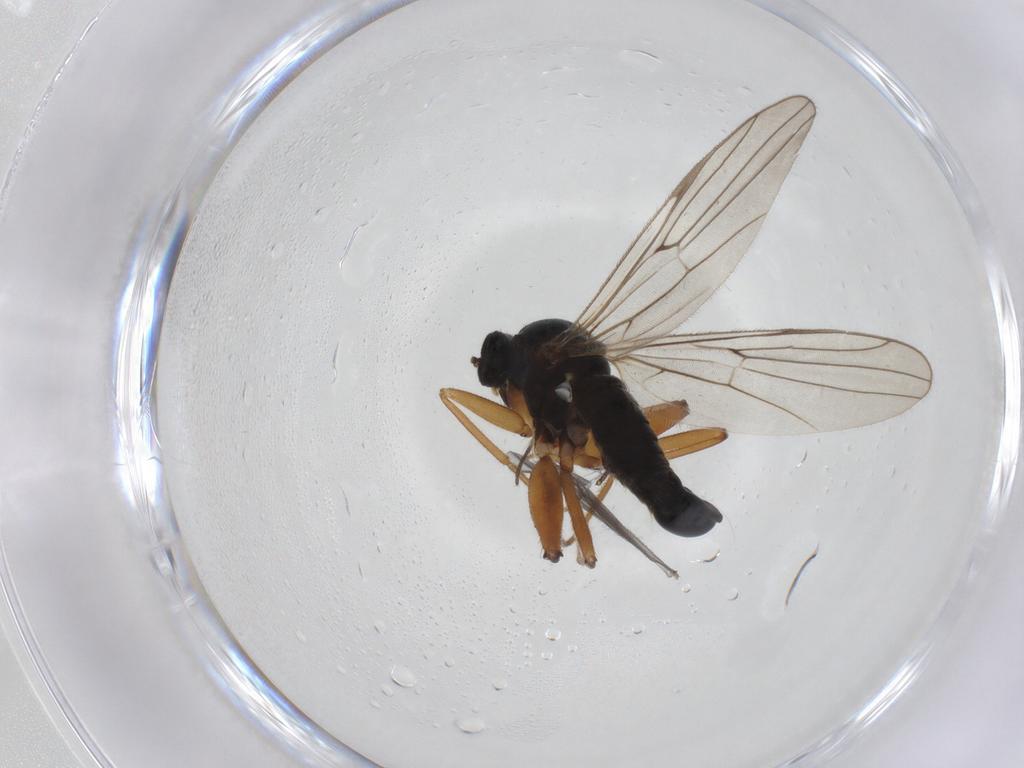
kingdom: Animalia
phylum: Arthropoda
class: Insecta
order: Diptera
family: Hybotidae
